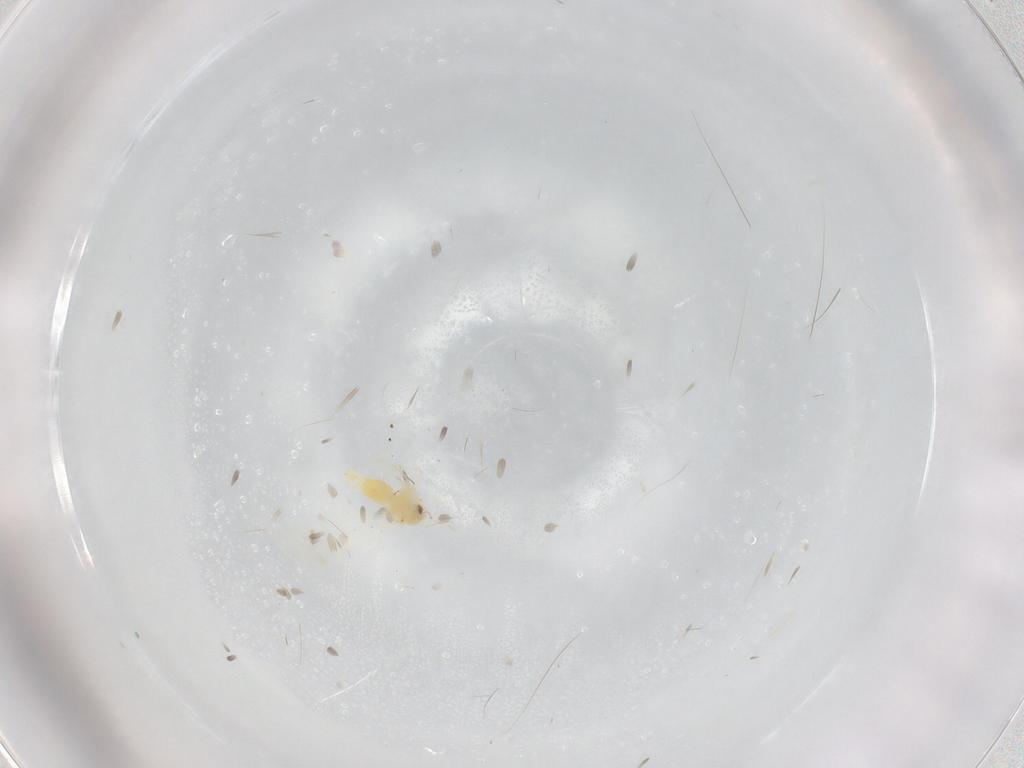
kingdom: Animalia
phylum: Arthropoda
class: Insecta
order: Hemiptera
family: Aleyrodidae
